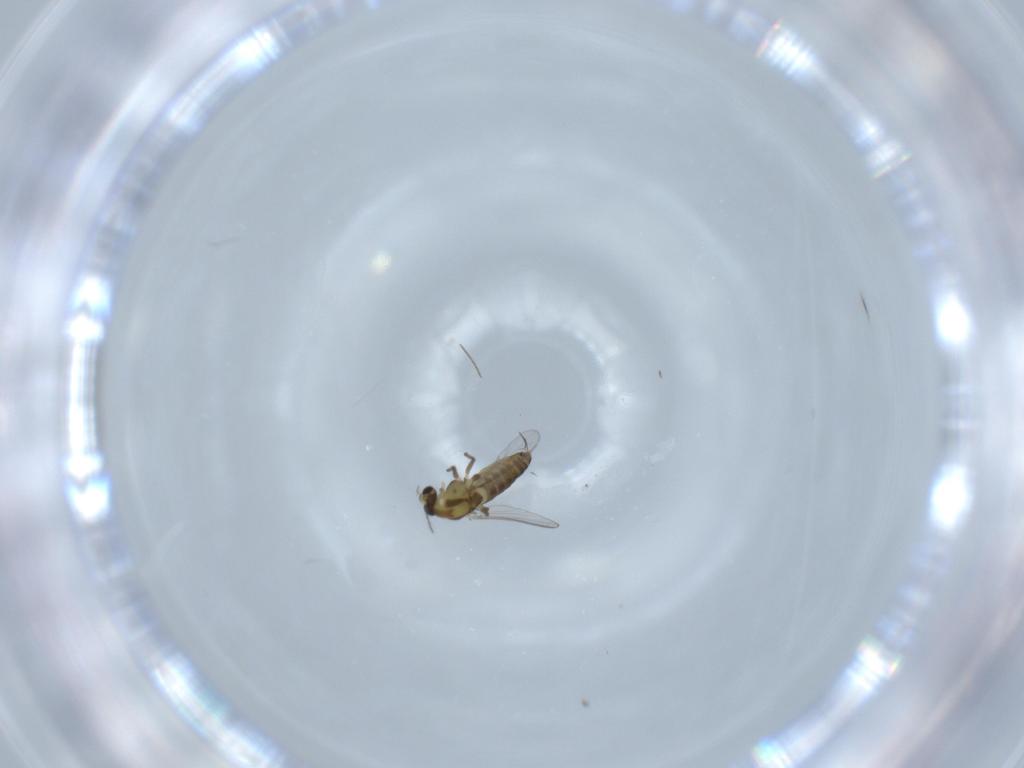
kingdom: Animalia
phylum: Arthropoda
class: Insecta
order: Diptera
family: Chironomidae
